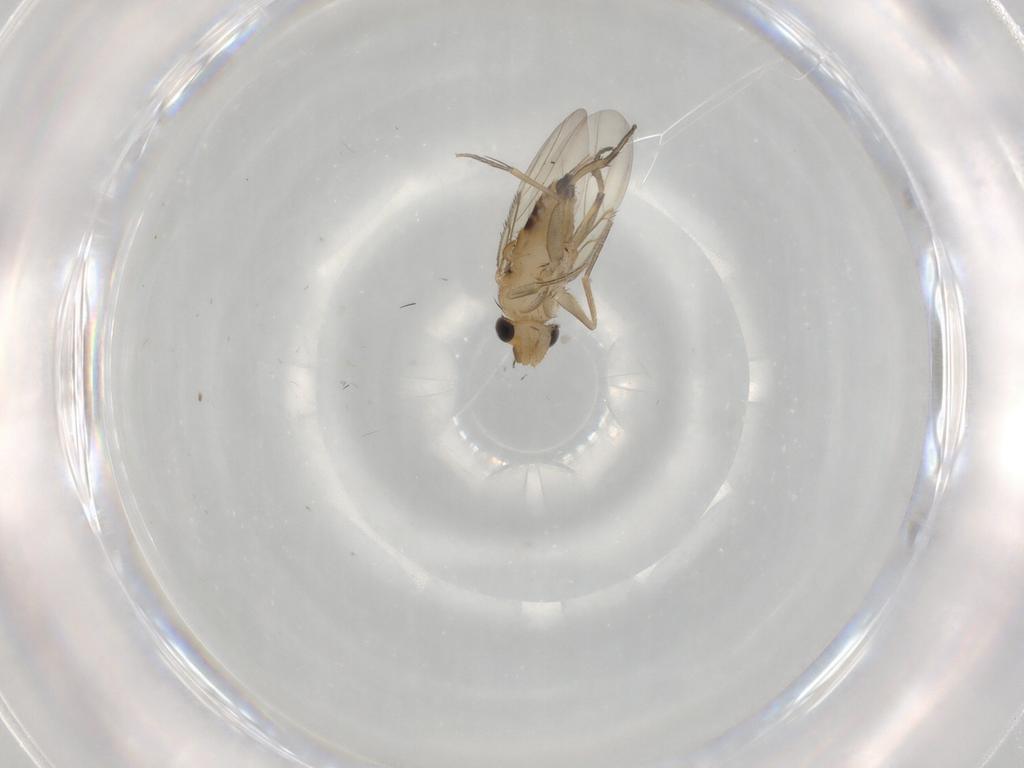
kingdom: Animalia
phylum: Arthropoda
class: Insecta
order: Diptera
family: Phoridae
